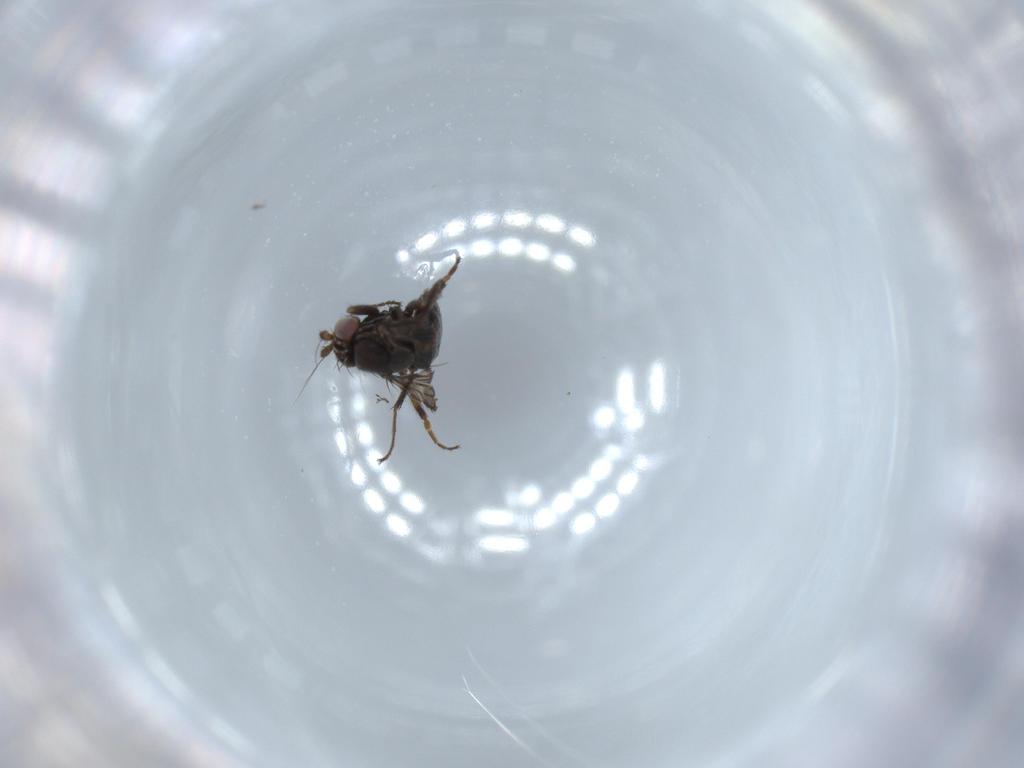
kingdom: Animalia
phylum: Arthropoda
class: Insecta
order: Diptera
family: Sphaeroceridae
